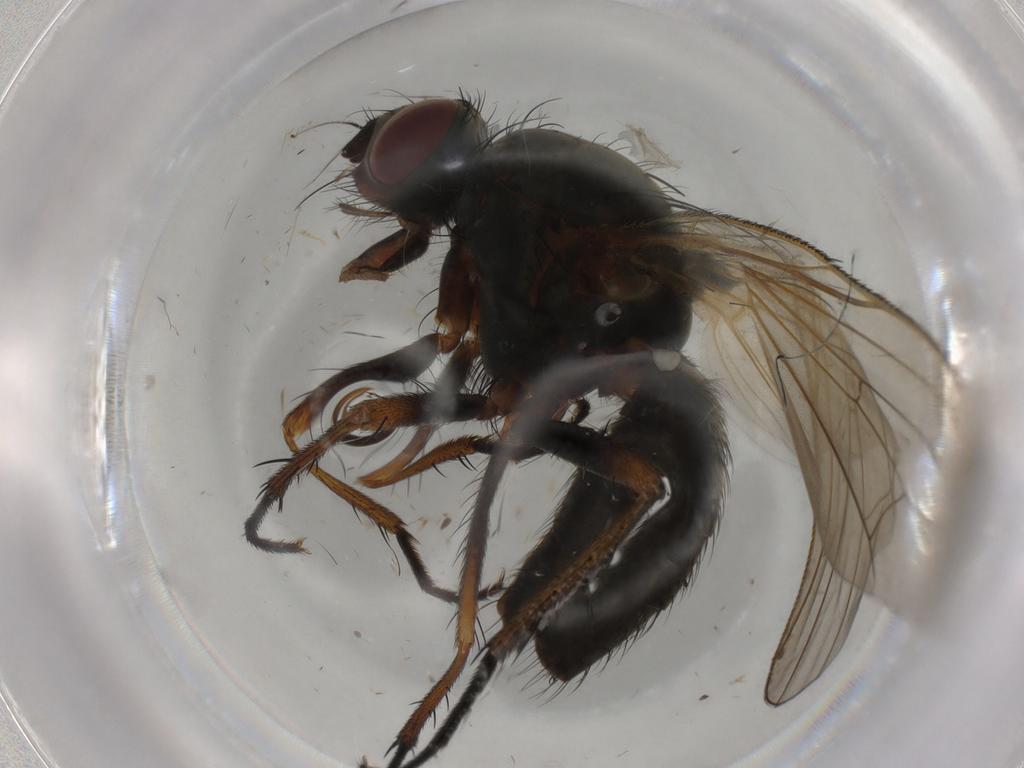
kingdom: Animalia
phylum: Arthropoda
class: Insecta
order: Diptera
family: Anthomyiidae
